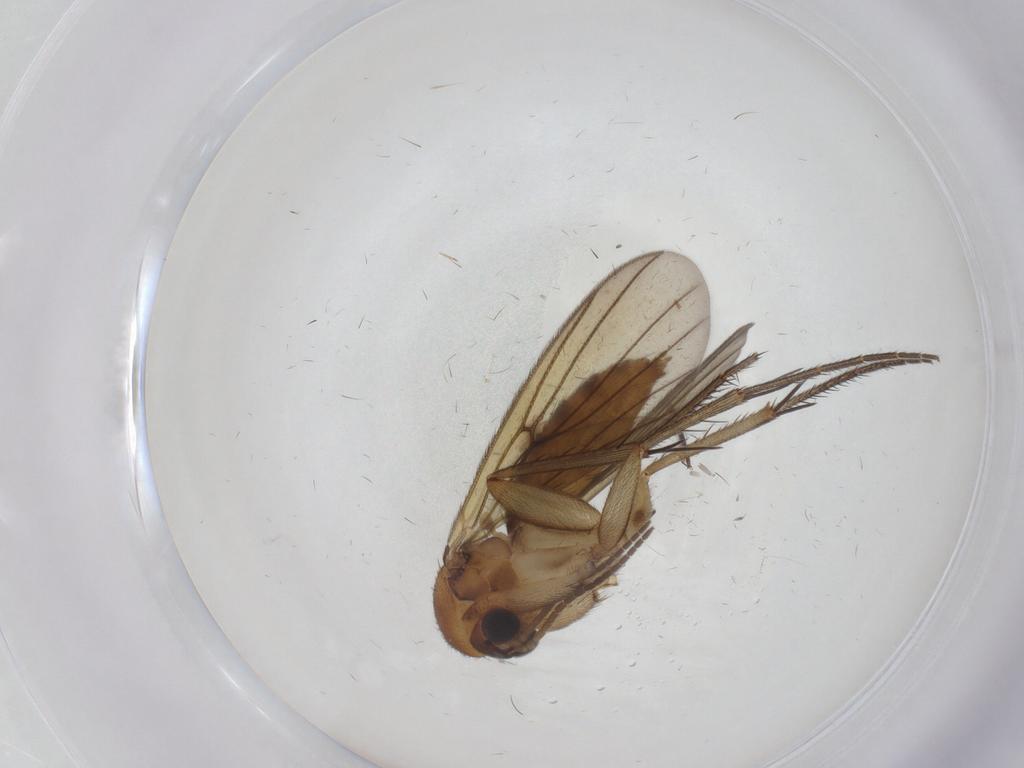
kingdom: Animalia
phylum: Arthropoda
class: Insecta
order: Diptera
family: Mycetophilidae
